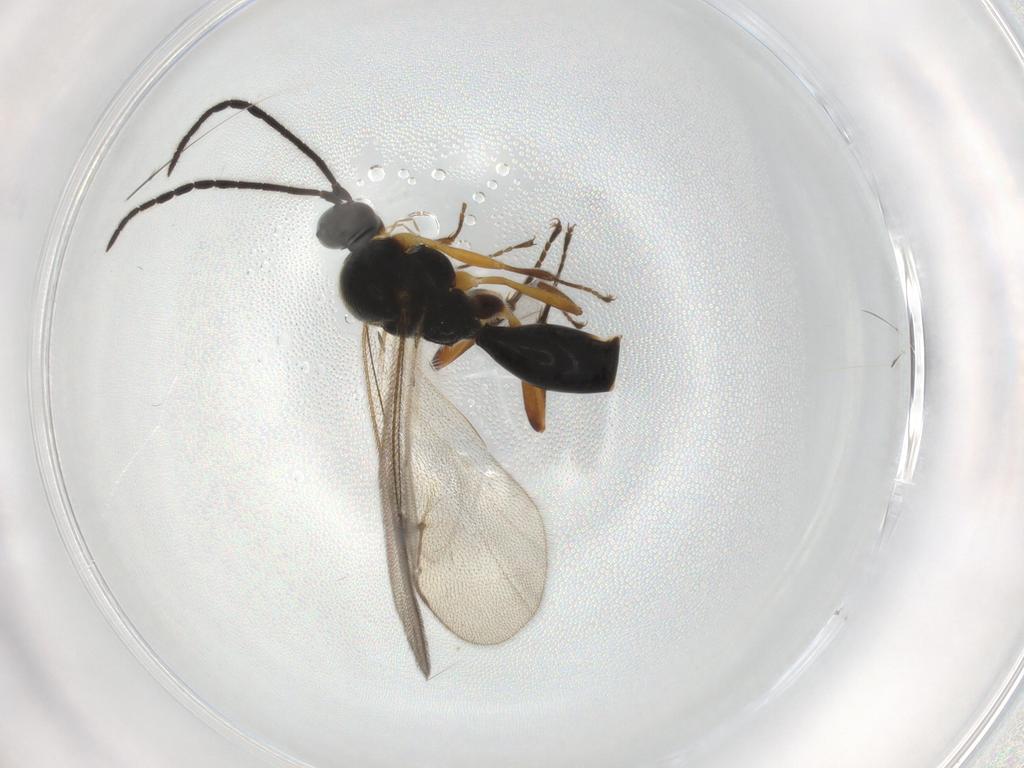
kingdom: Animalia
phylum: Arthropoda
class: Insecta
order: Hymenoptera
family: Proctotrupidae
